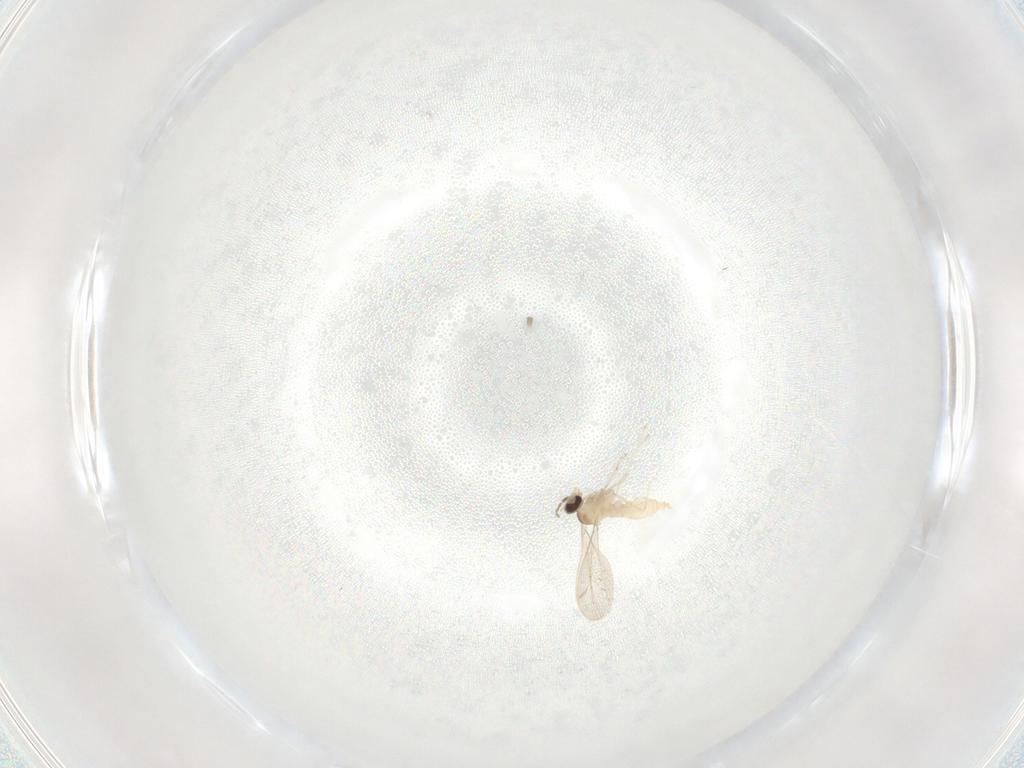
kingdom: Animalia
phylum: Arthropoda
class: Insecta
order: Diptera
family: Cecidomyiidae
